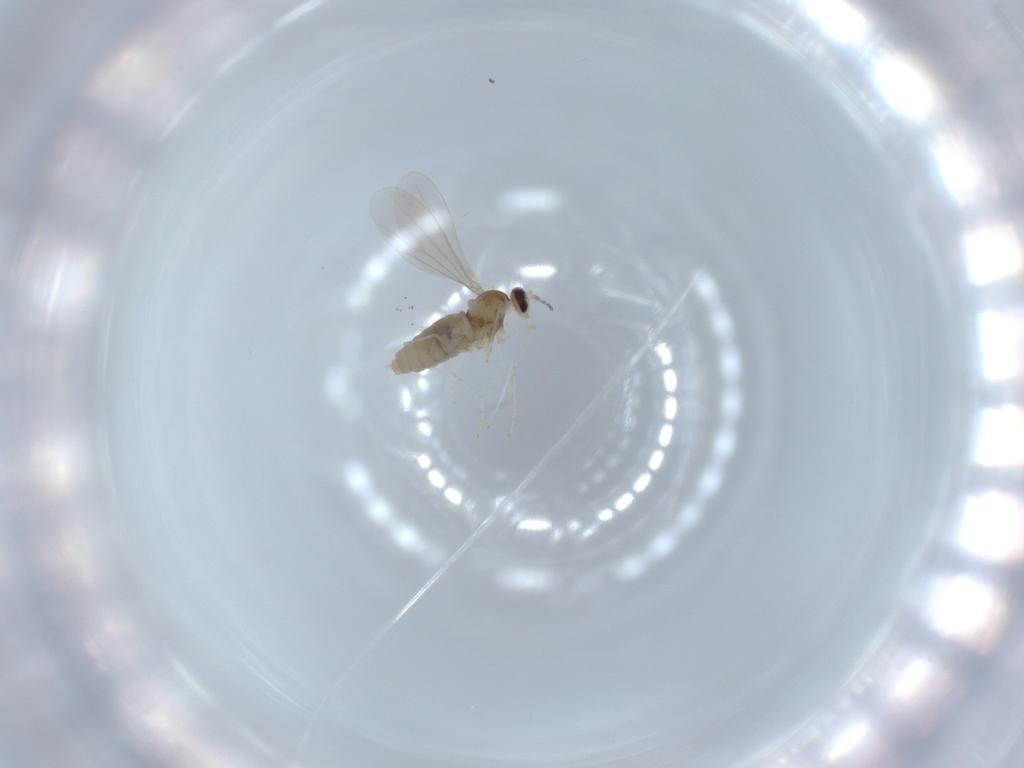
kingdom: Animalia
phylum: Arthropoda
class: Insecta
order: Diptera
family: Cecidomyiidae
